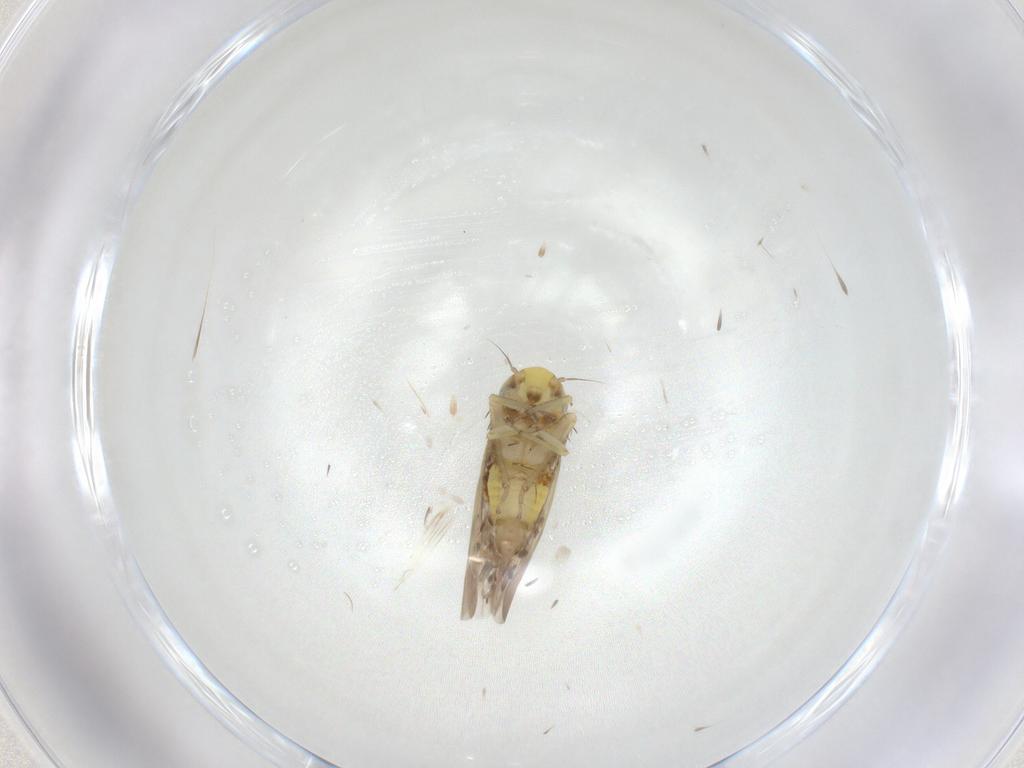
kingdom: Animalia
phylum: Arthropoda
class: Insecta
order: Hemiptera
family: Cicadellidae
